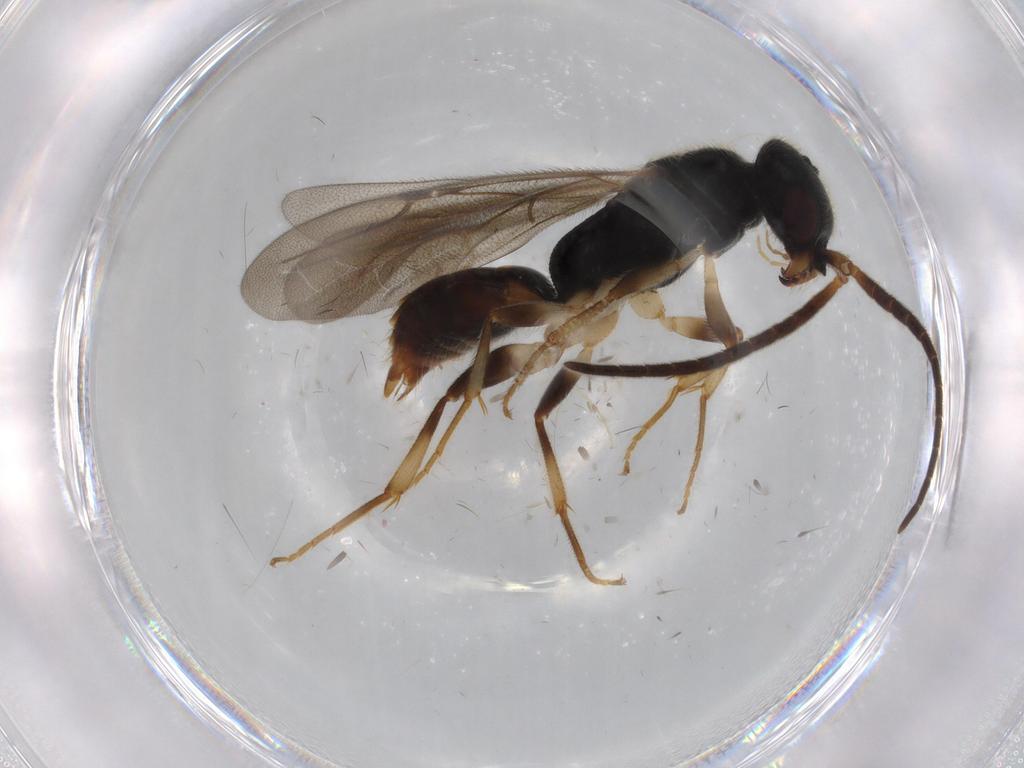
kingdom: Animalia
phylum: Arthropoda
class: Insecta
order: Hymenoptera
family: Bethylidae
